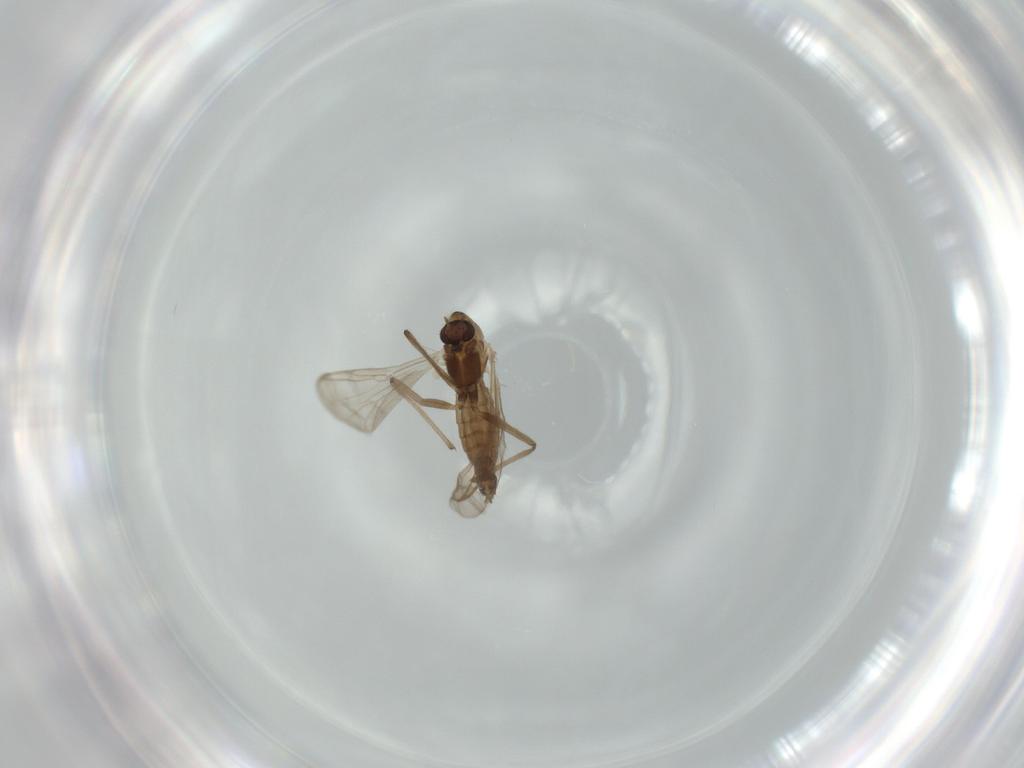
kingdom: Animalia
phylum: Arthropoda
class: Insecta
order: Diptera
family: Chironomidae
